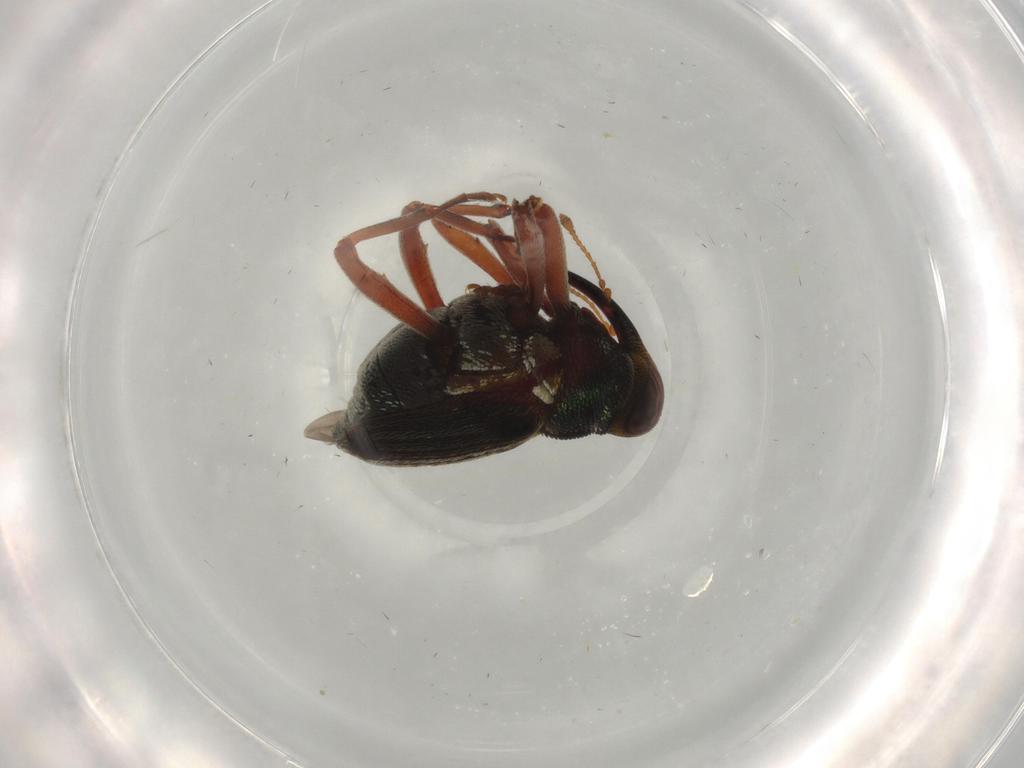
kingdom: Animalia
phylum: Arthropoda
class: Insecta
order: Coleoptera
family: Curculionidae
